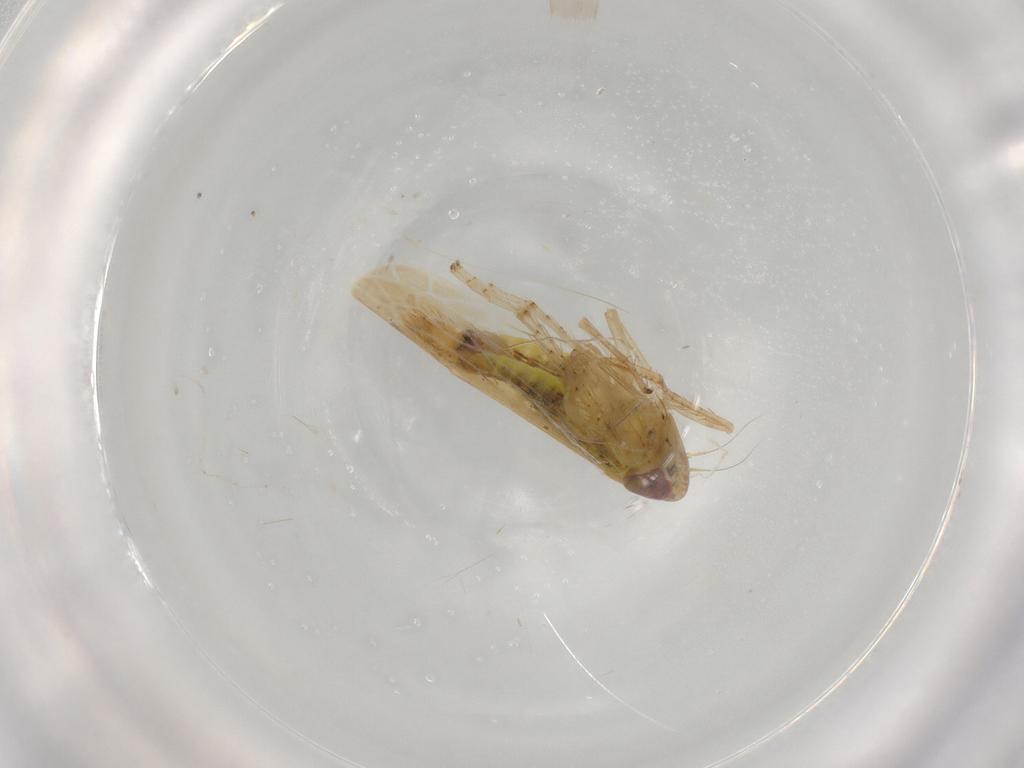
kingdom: Animalia
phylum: Arthropoda
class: Insecta
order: Hemiptera
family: Cicadellidae
